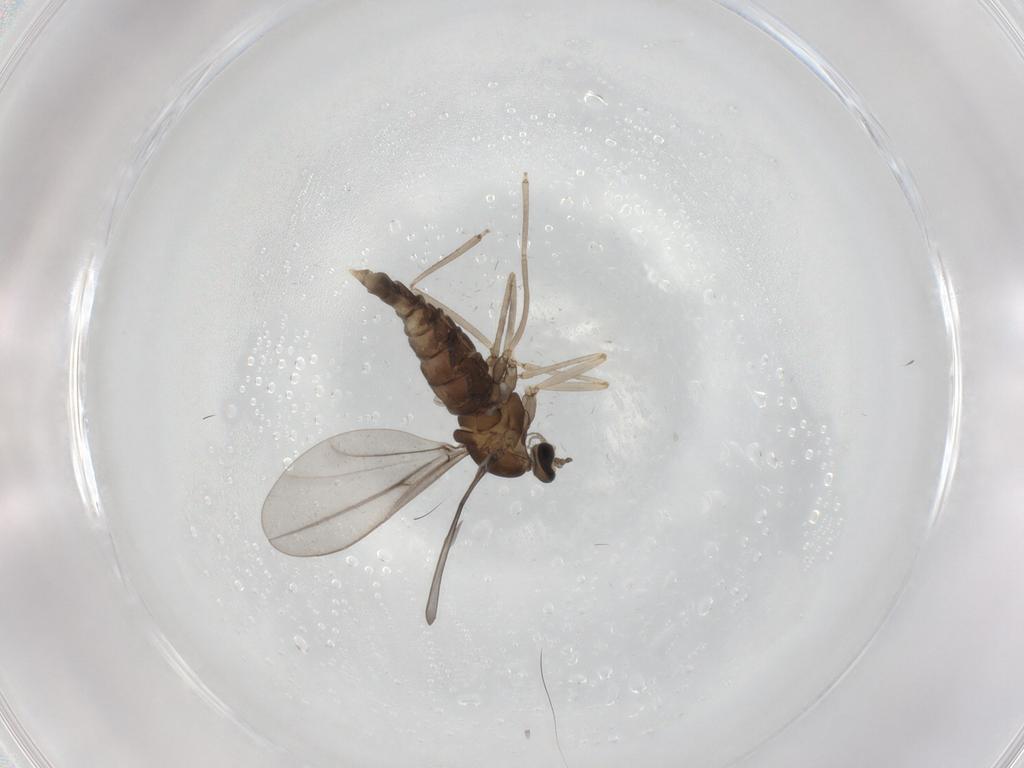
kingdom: Animalia
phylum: Arthropoda
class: Insecta
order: Diptera
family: Cecidomyiidae
